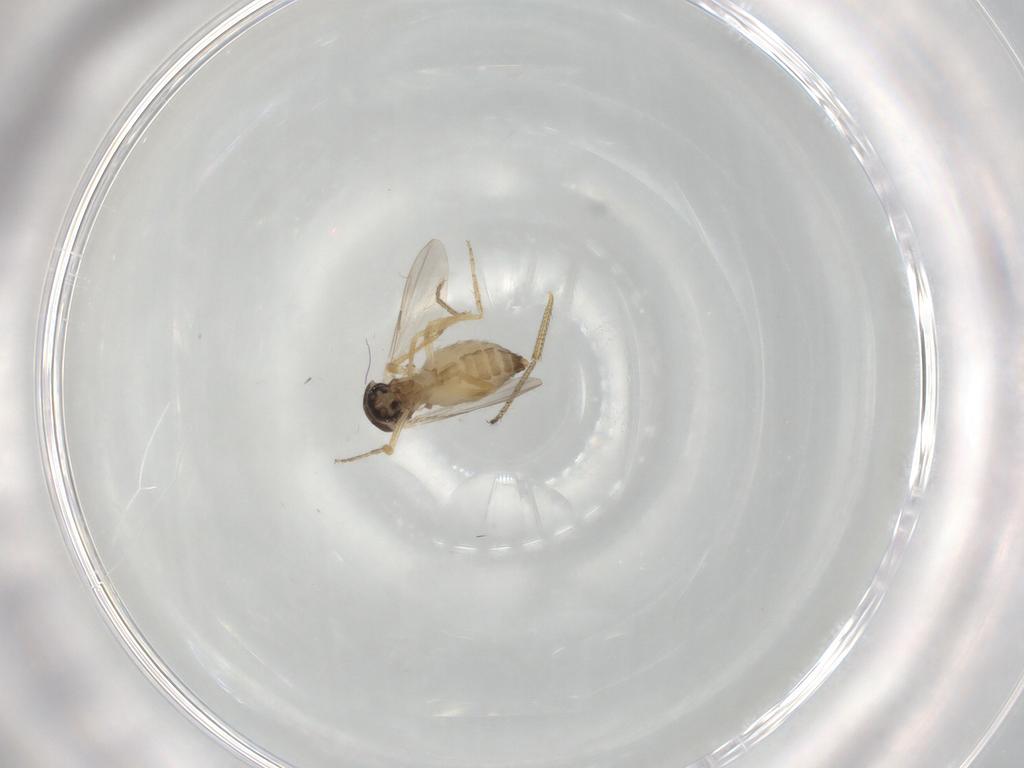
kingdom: Animalia
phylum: Arthropoda
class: Insecta
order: Diptera
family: Ceratopogonidae
